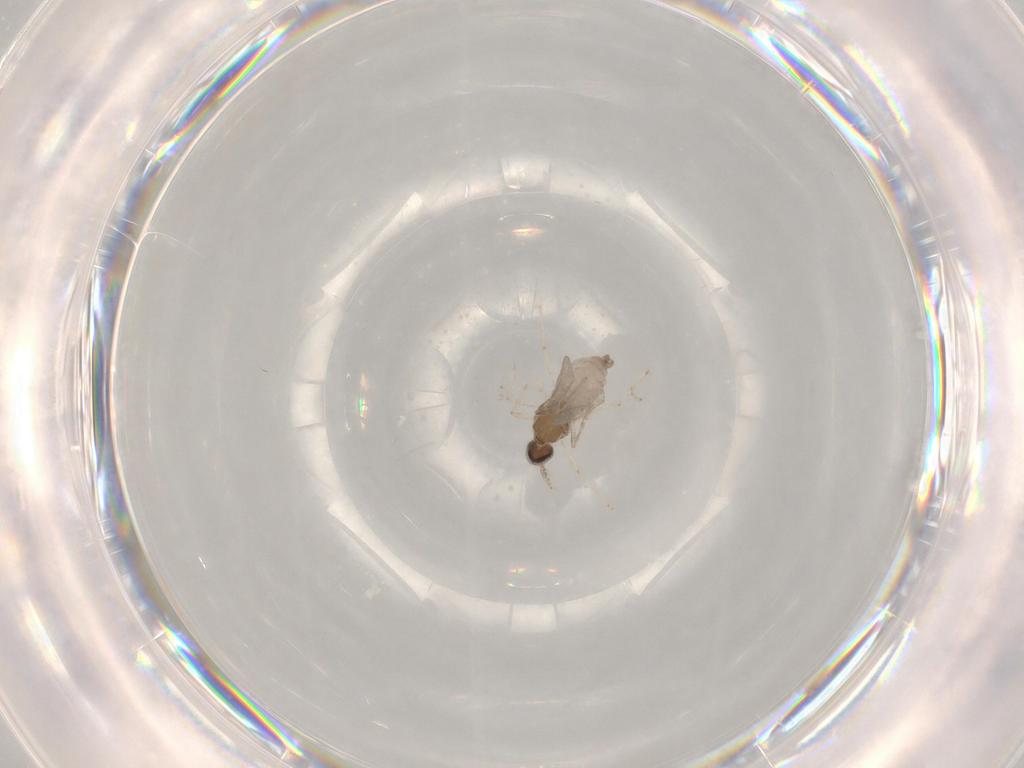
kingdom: Animalia
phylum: Arthropoda
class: Insecta
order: Diptera
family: Cecidomyiidae
